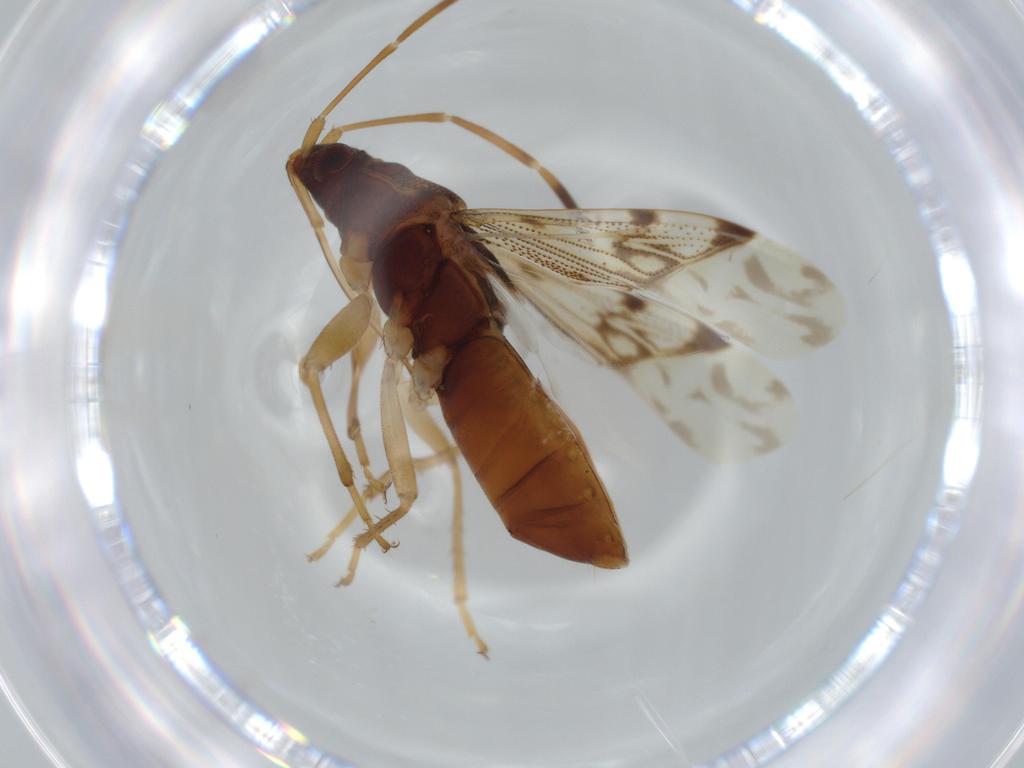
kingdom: Animalia
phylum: Arthropoda
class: Insecta
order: Hemiptera
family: Rhyparochromidae
